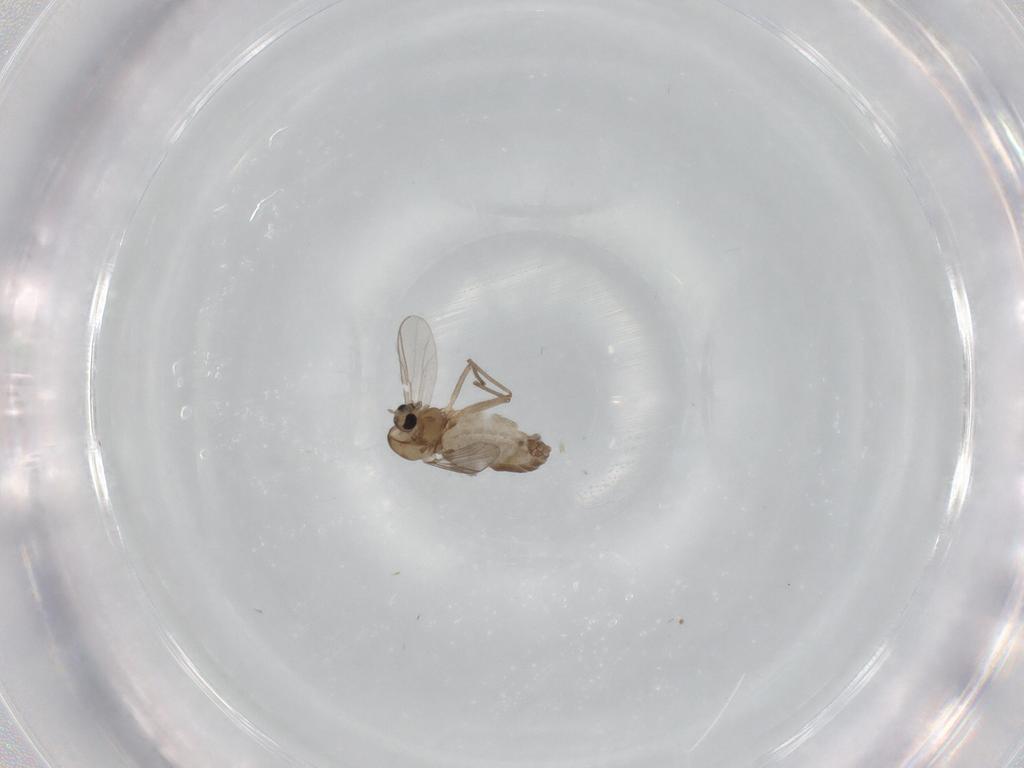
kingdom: Animalia
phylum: Arthropoda
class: Insecta
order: Diptera
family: Chironomidae
